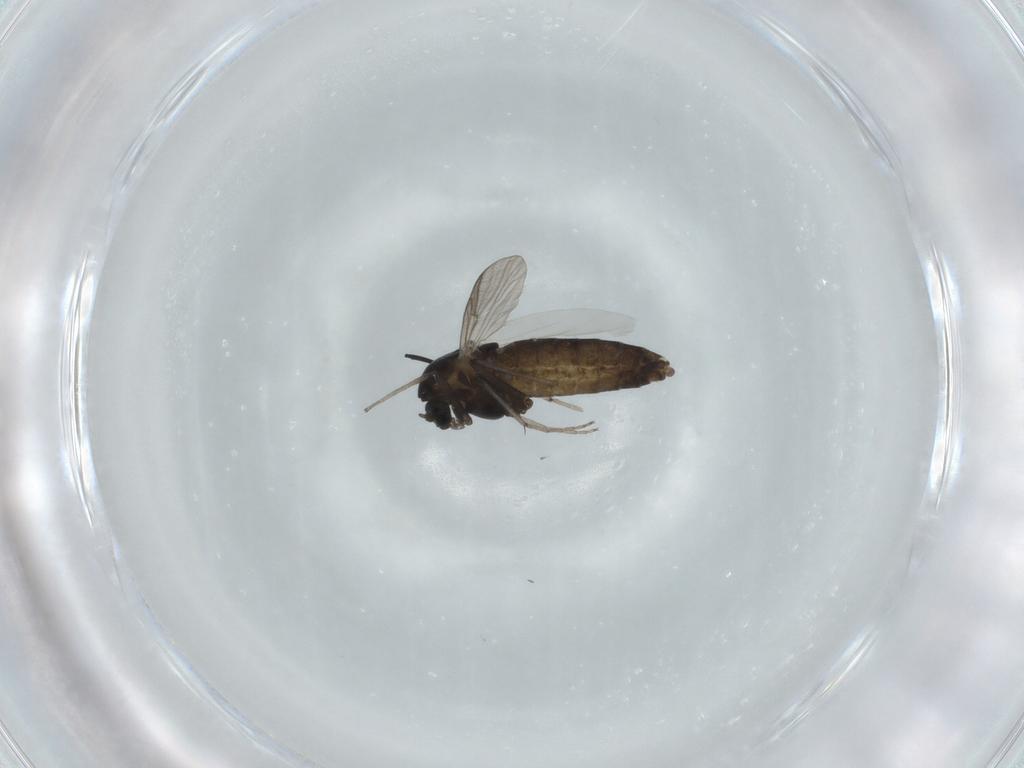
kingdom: Animalia
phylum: Arthropoda
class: Insecta
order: Diptera
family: Chironomidae
